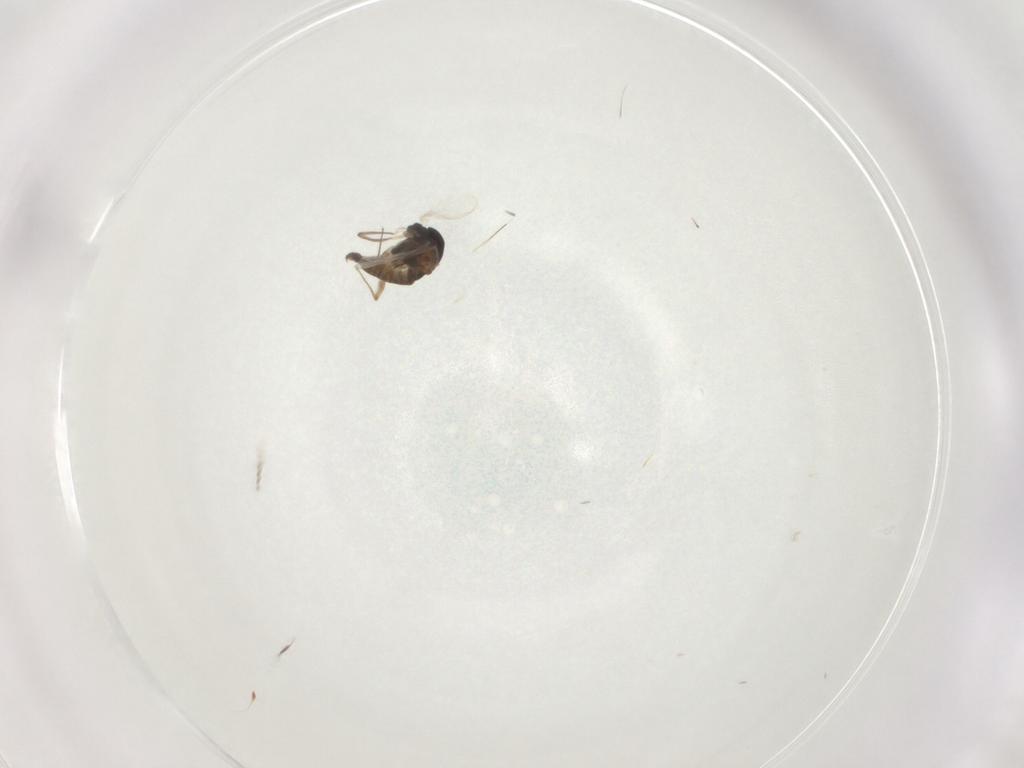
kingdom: Animalia
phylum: Arthropoda
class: Insecta
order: Diptera
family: Chironomidae
